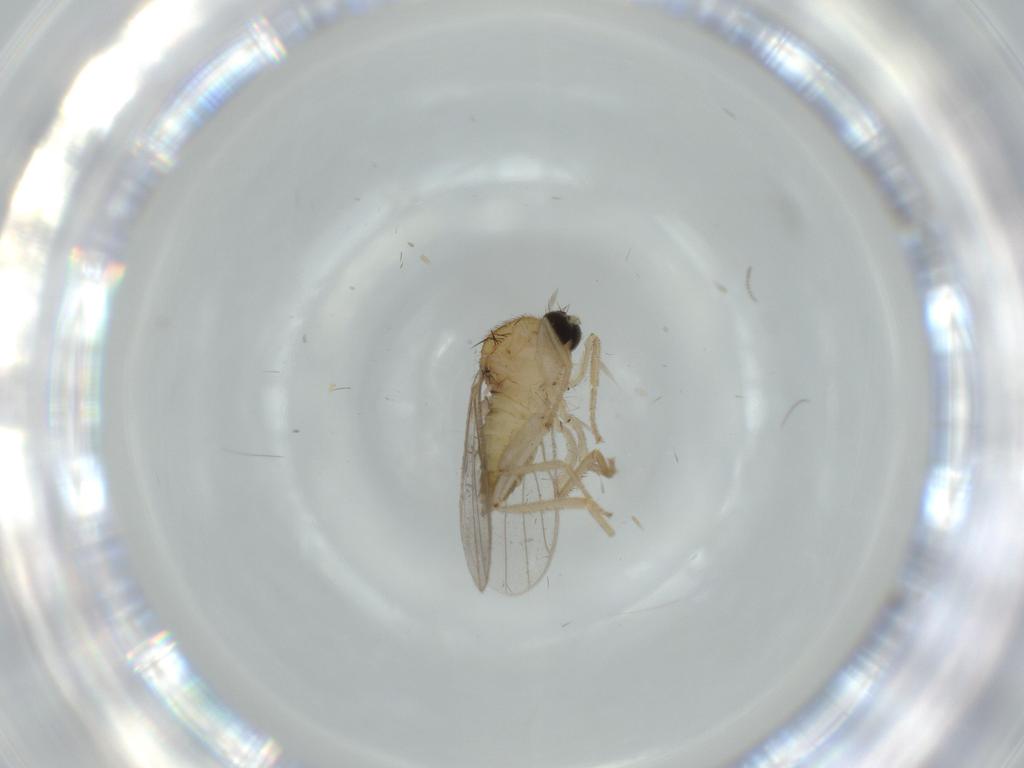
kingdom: Animalia
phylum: Arthropoda
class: Insecta
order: Diptera
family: Hybotidae
